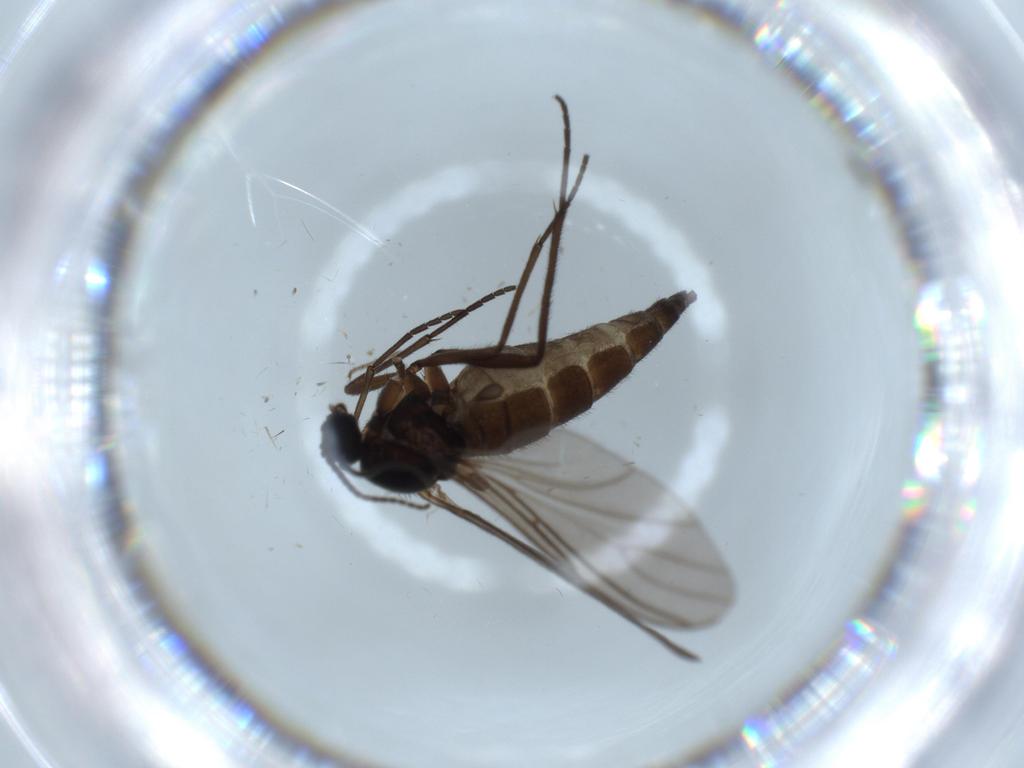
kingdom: Animalia
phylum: Arthropoda
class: Insecta
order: Diptera
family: Sciaridae
